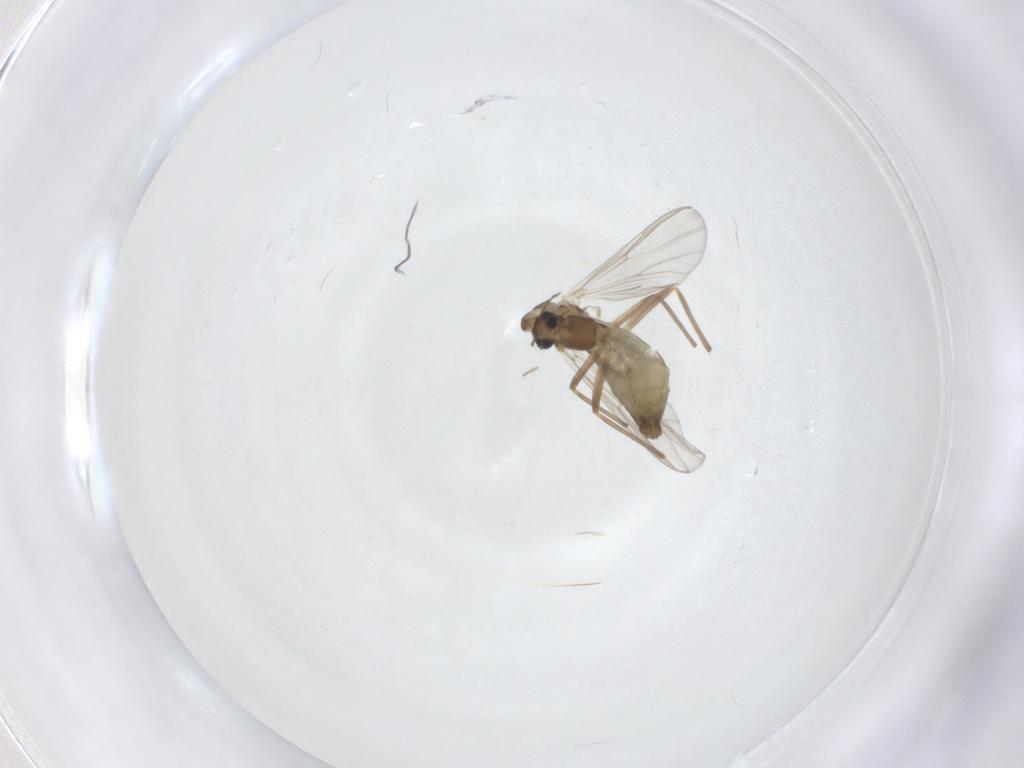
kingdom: Animalia
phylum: Arthropoda
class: Insecta
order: Diptera
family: Chironomidae
